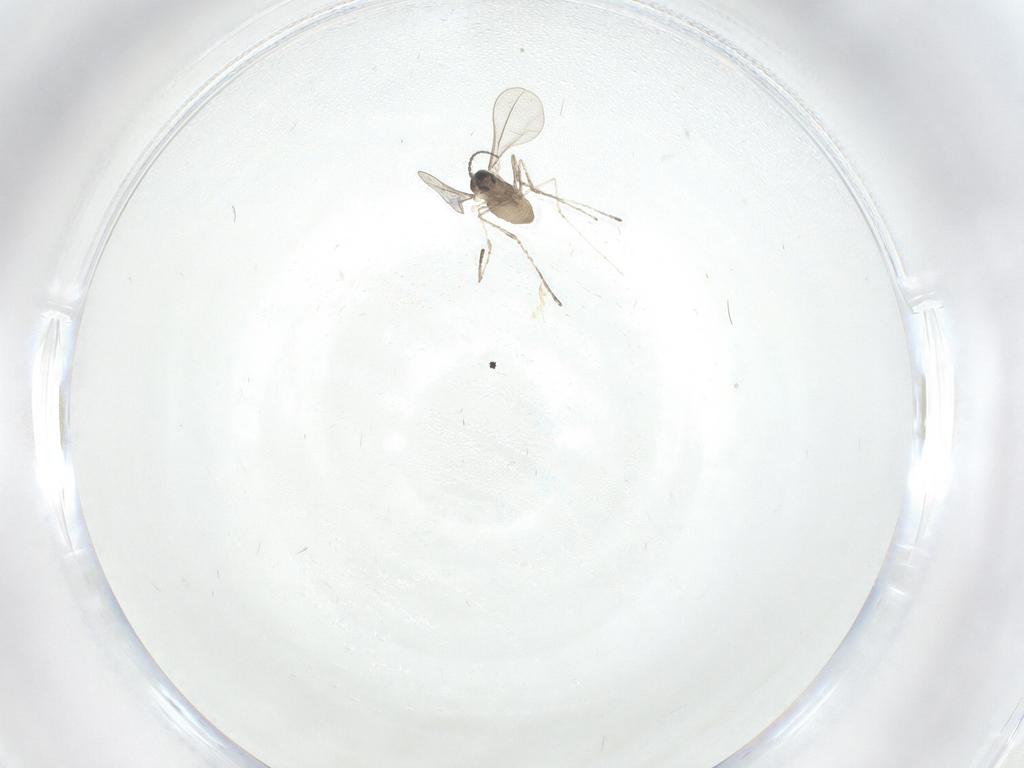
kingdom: Animalia
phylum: Arthropoda
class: Insecta
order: Diptera
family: Cecidomyiidae
